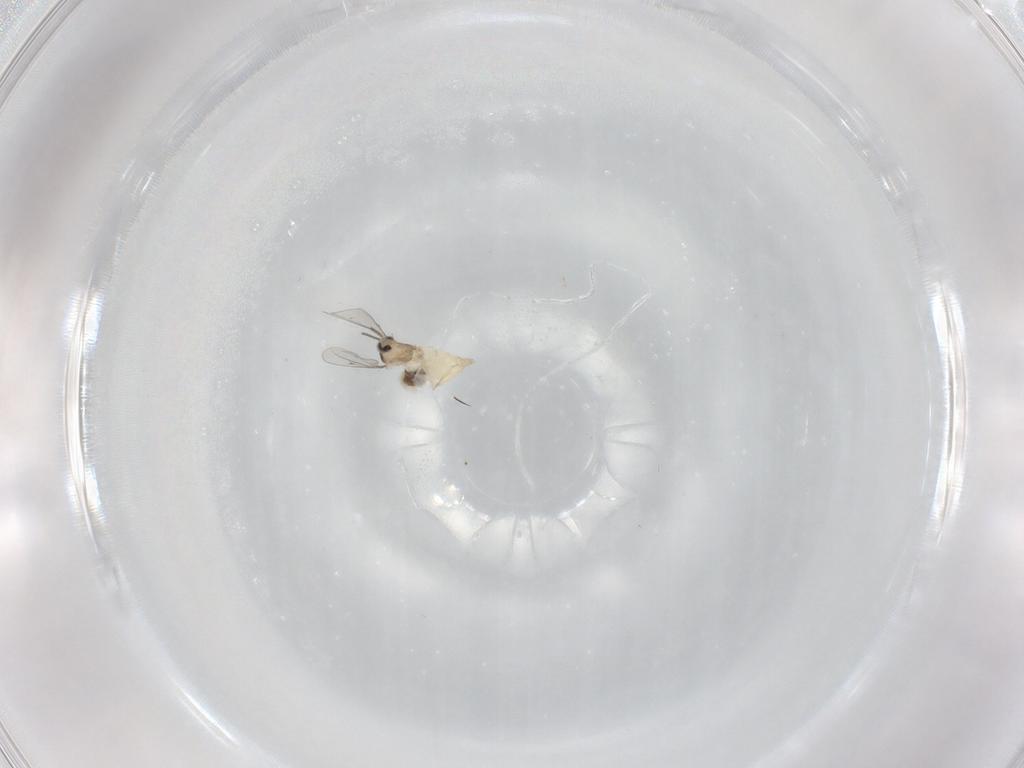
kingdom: Animalia
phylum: Arthropoda
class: Insecta
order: Diptera
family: Cecidomyiidae
